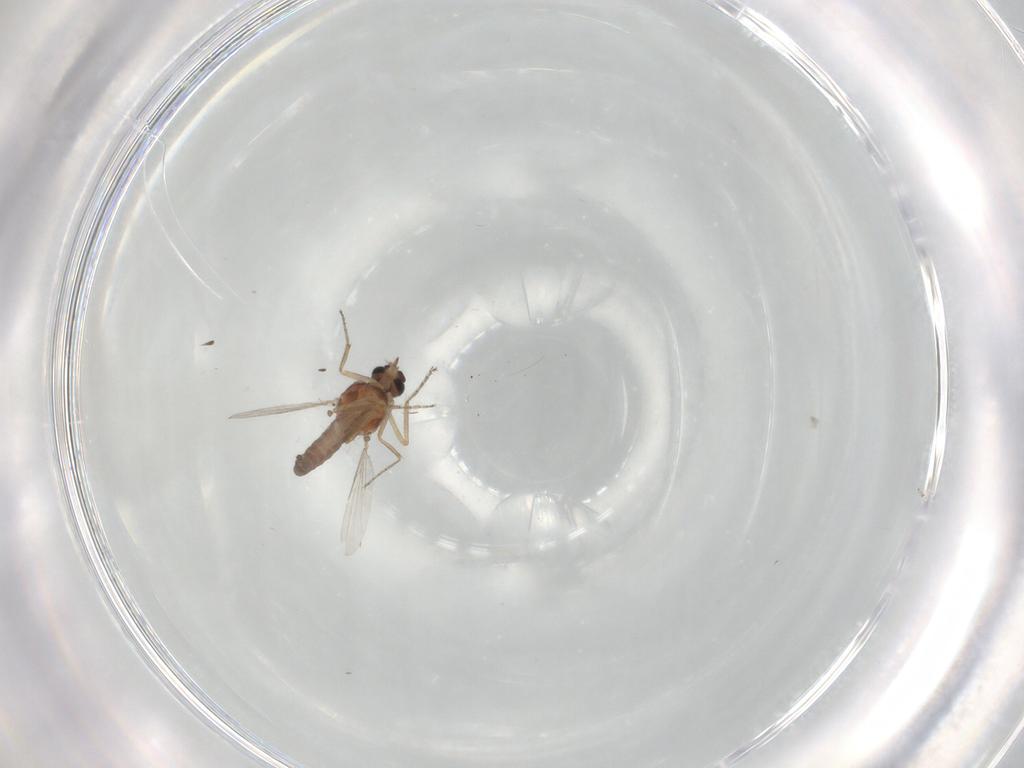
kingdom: Animalia
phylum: Arthropoda
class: Insecta
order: Diptera
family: Ceratopogonidae
